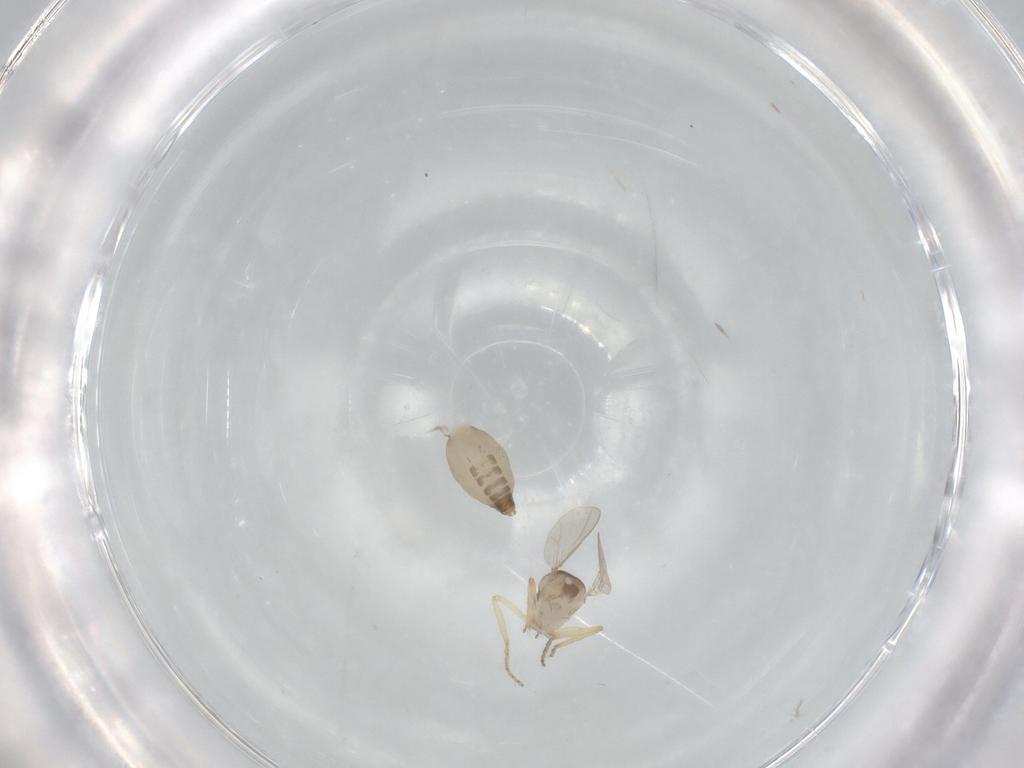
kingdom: Animalia
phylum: Arthropoda
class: Insecta
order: Diptera
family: Ceratopogonidae
